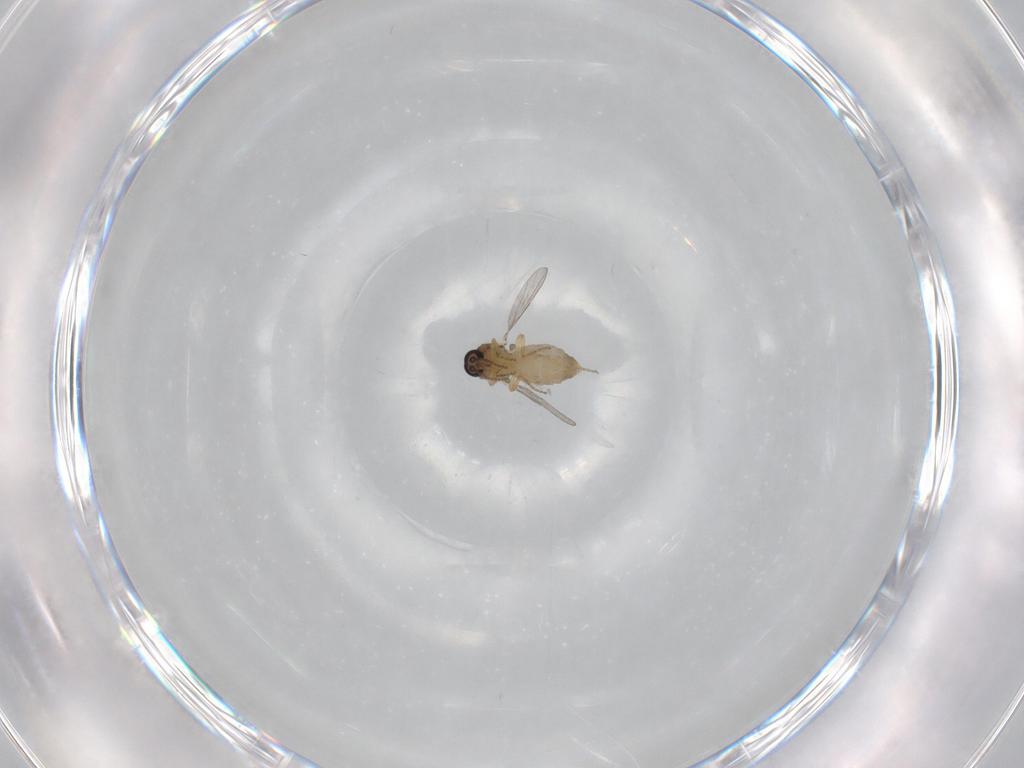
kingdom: Animalia
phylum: Arthropoda
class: Insecta
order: Diptera
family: Ceratopogonidae
